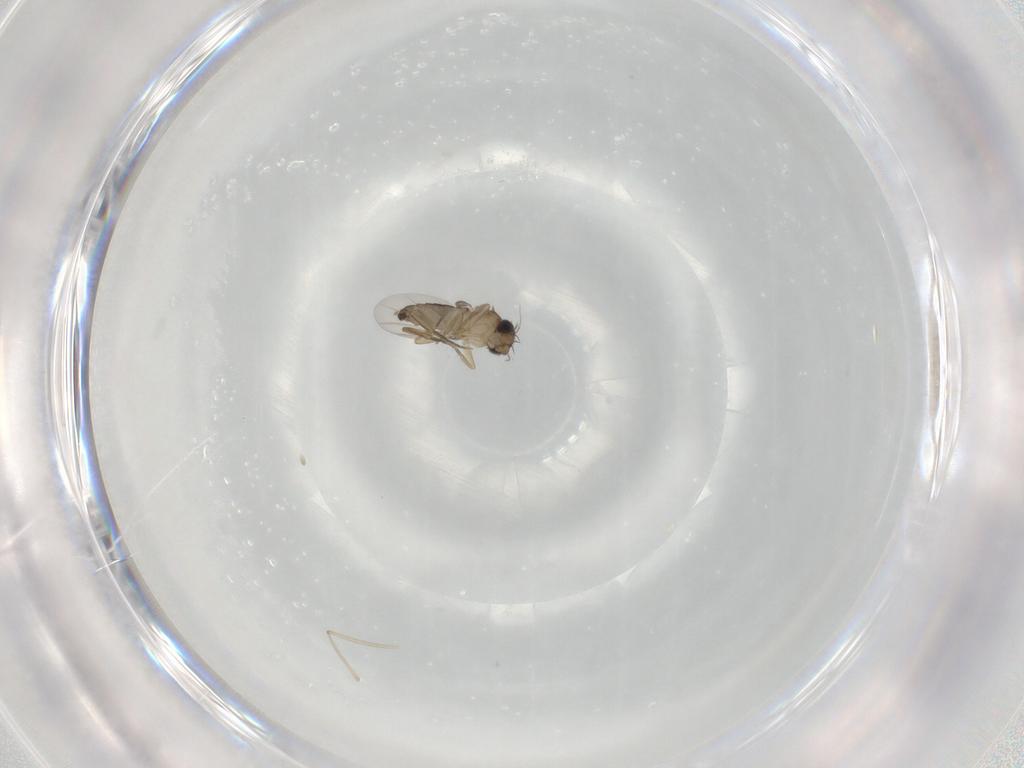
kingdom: Animalia
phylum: Arthropoda
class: Insecta
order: Diptera
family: Phoridae
